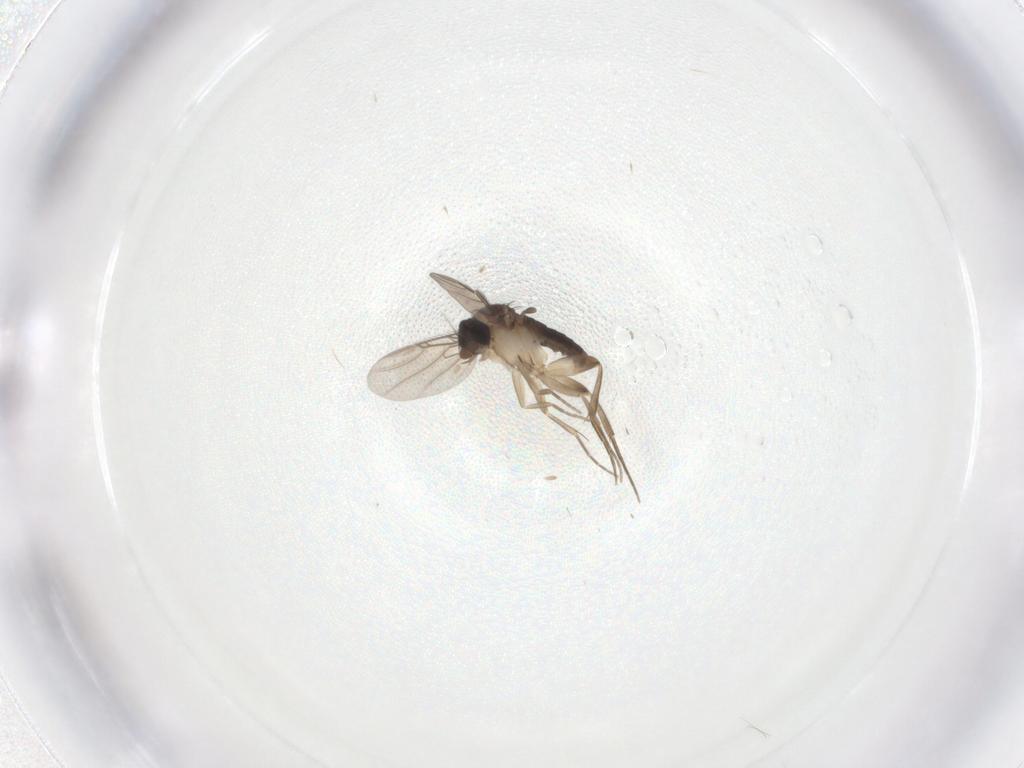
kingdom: Animalia
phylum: Arthropoda
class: Insecta
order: Diptera
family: Phoridae
